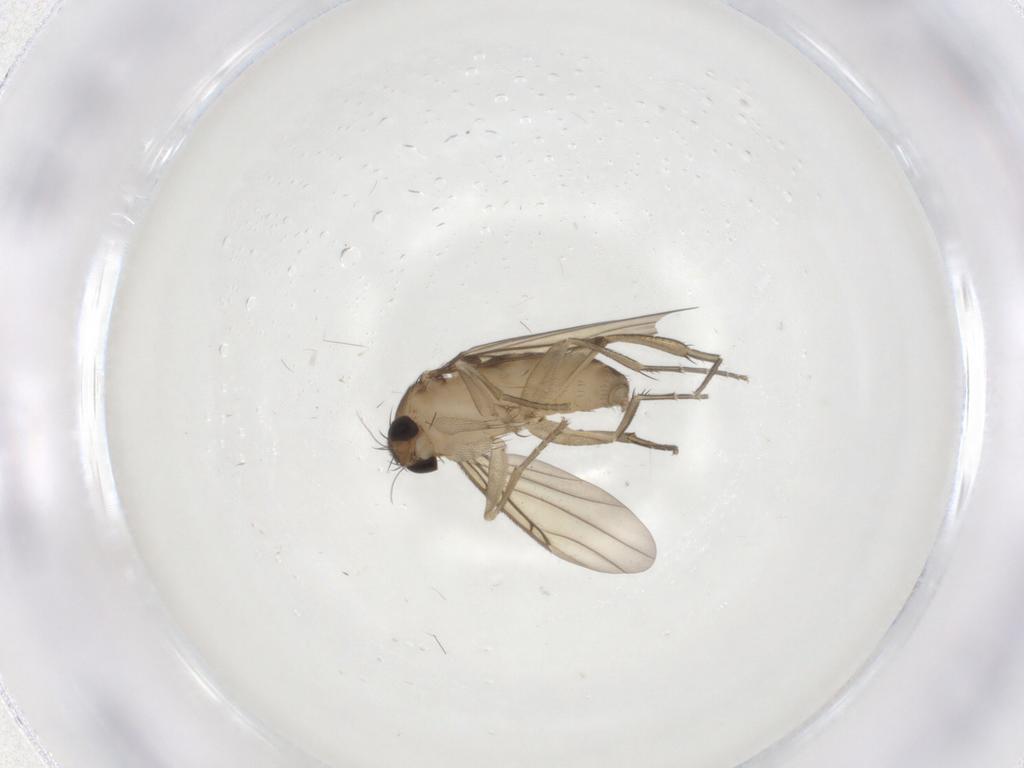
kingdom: Animalia
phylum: Arthropoda
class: Insecta
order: Diptera
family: Phoridae
